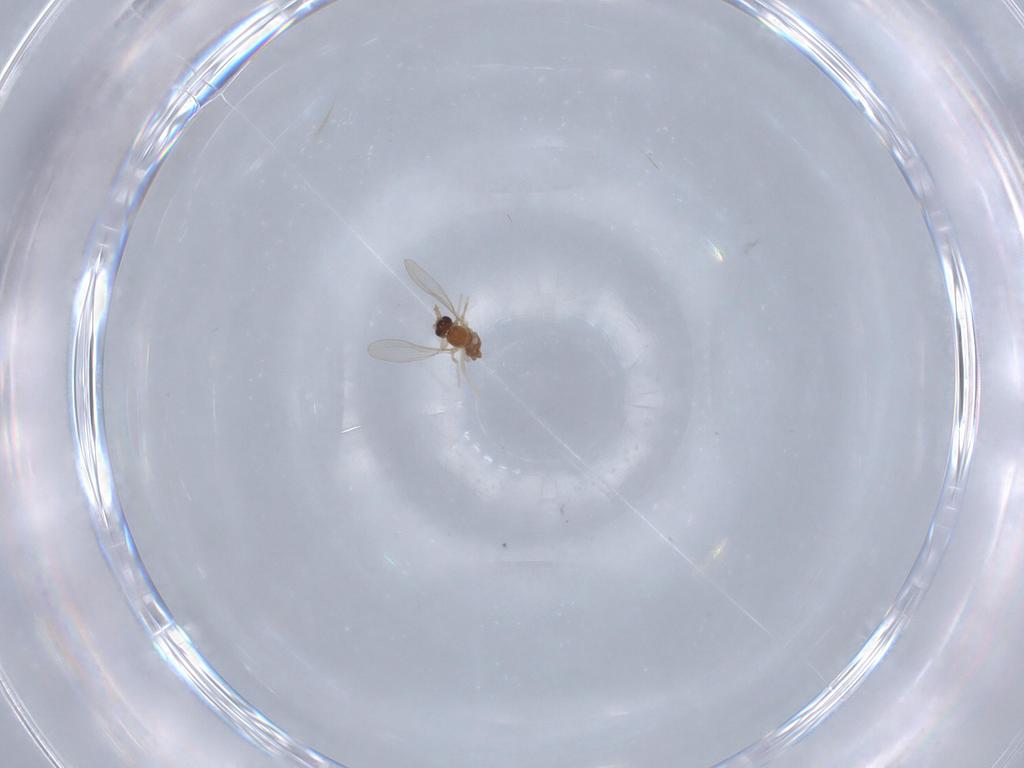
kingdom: Animalia
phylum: Arthropoda
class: Insecta
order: Diptera
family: Cecidomyiidae
